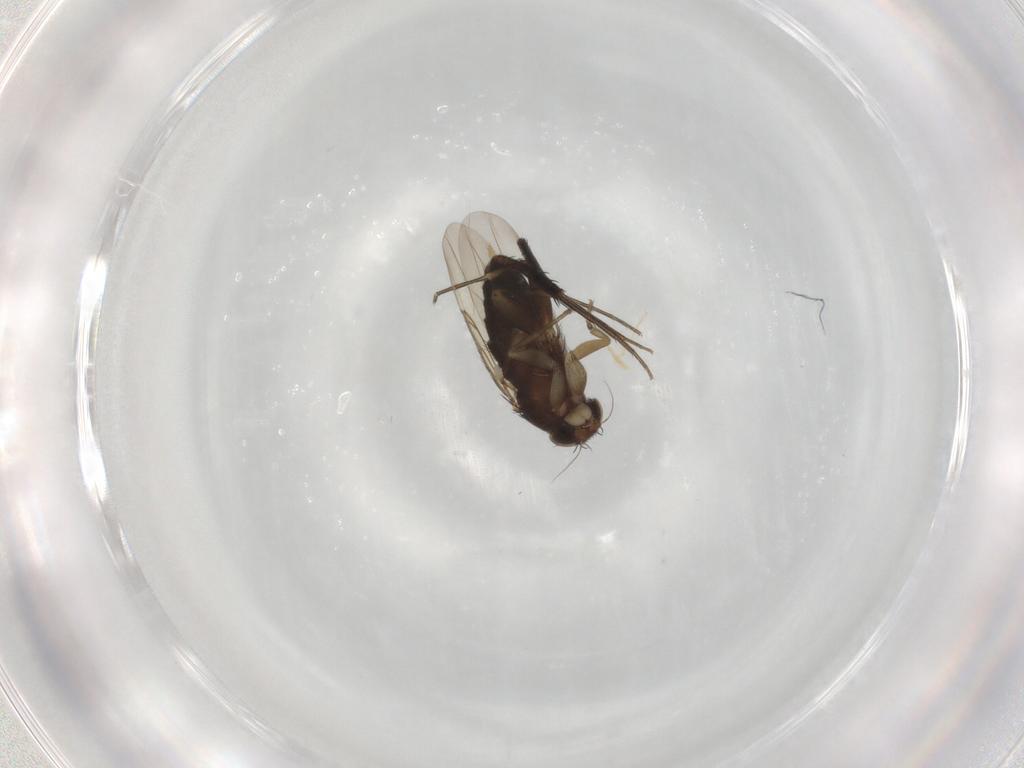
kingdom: Animalia
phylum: Arthropoda
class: Insecta
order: Diptera
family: Phoridae
